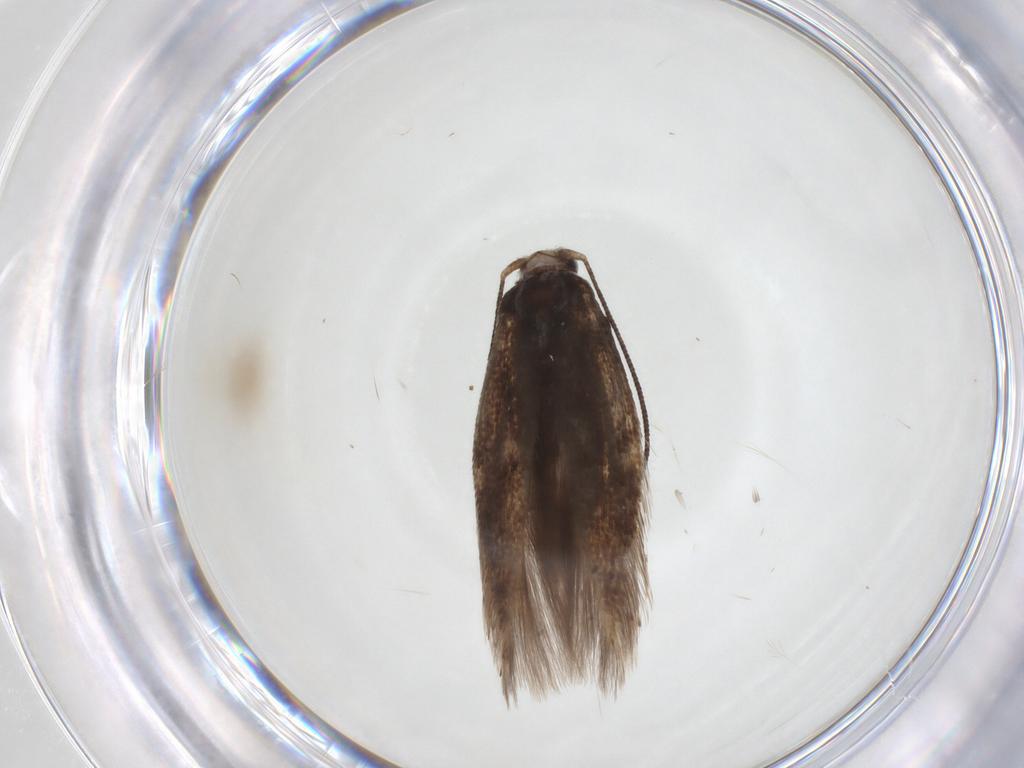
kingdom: Animalia
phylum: Arthropoda
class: Insecta
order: Lepidoptera
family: Bucculatricidae
